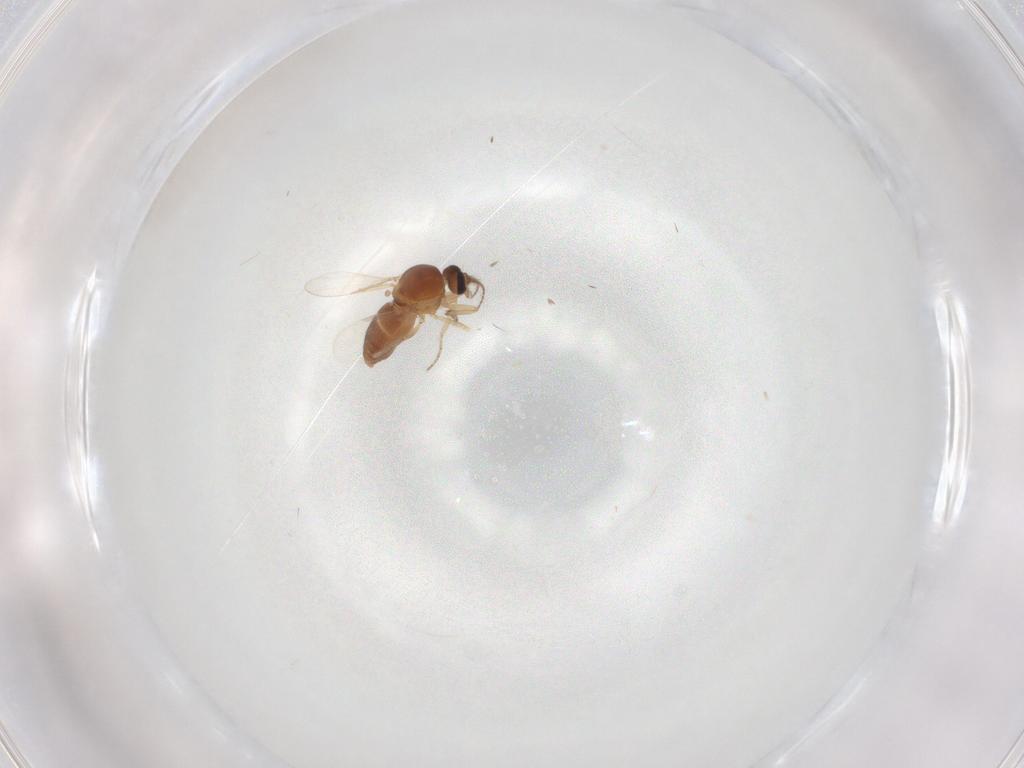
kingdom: Animalia
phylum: Arthropoda
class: Insecta
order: Diptera
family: Ceratopogonidae
